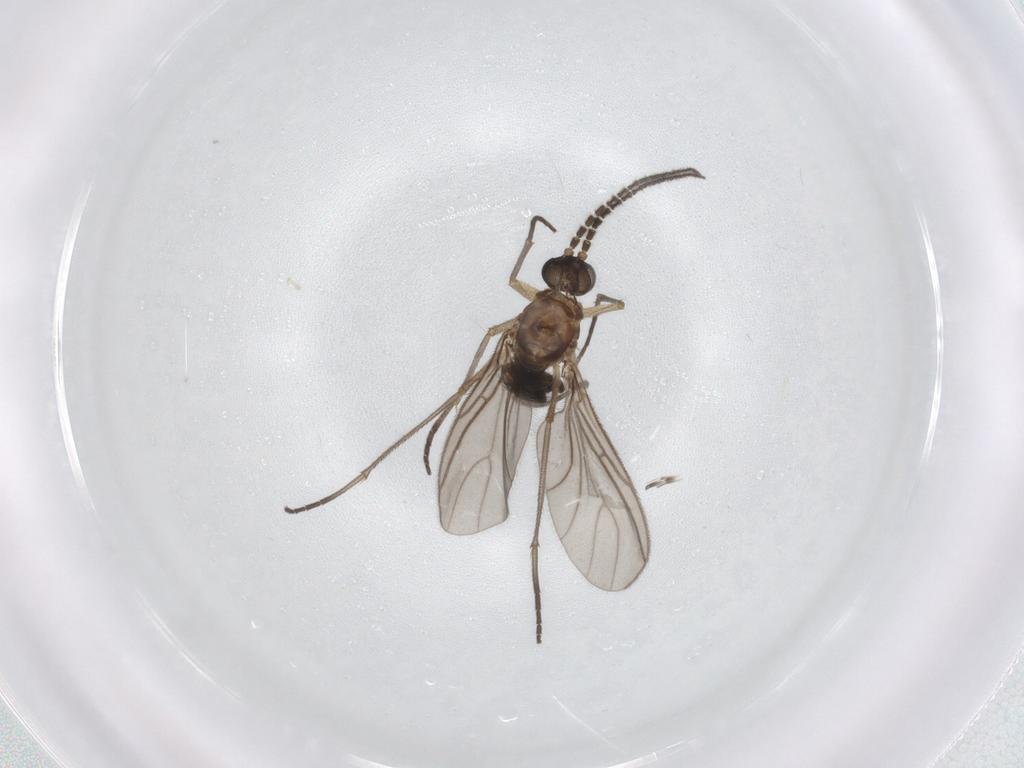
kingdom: Animalia
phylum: Arthropoda
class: Insecta
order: Diptera
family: Sciaridae
